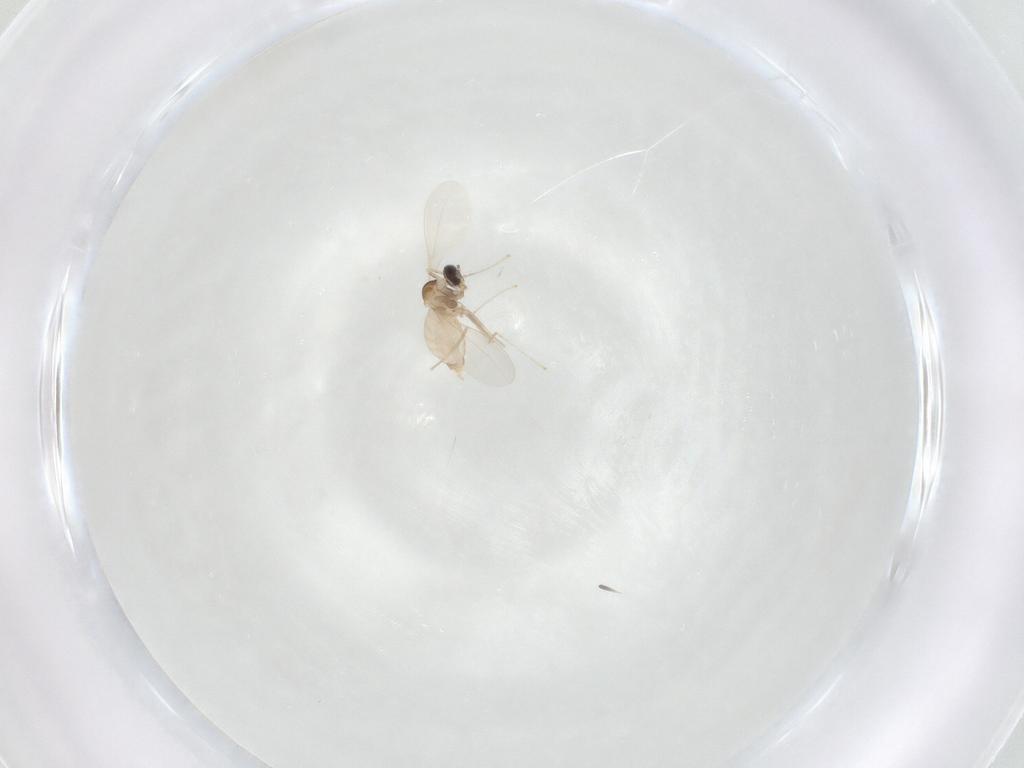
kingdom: Animalia
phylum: Arthropoda
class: Insecta
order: Diptera
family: Cecidomyiidae
